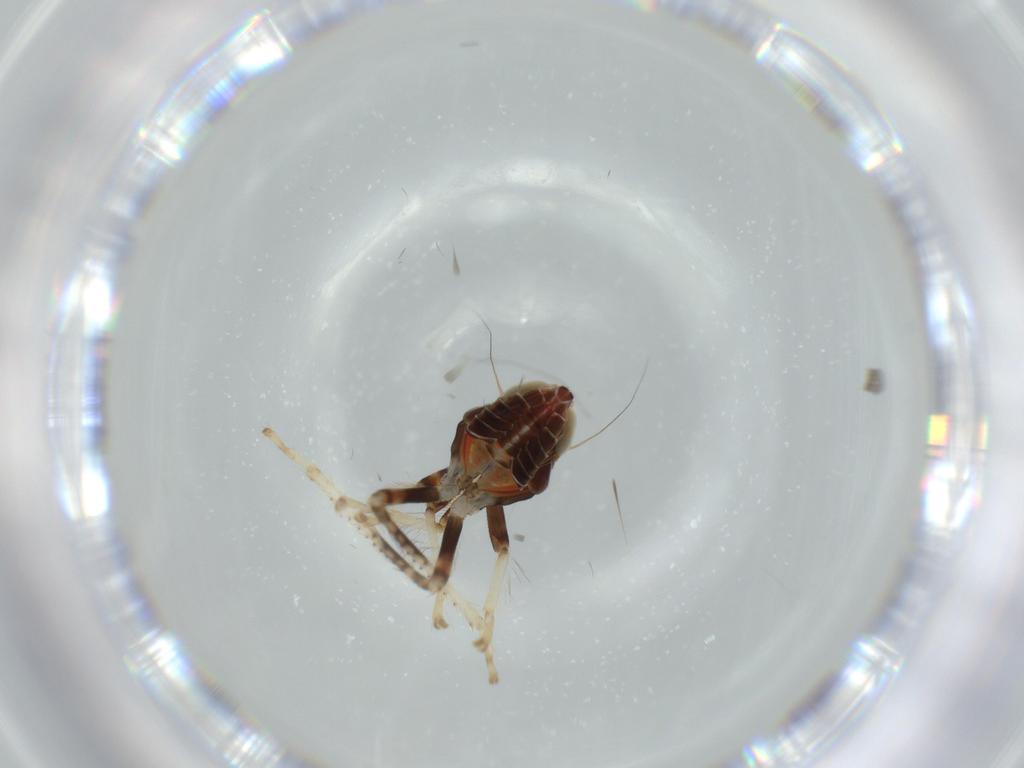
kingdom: Animalia
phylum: Arthropoda
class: Insecta
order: Hemiptera
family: Cicadellidae
